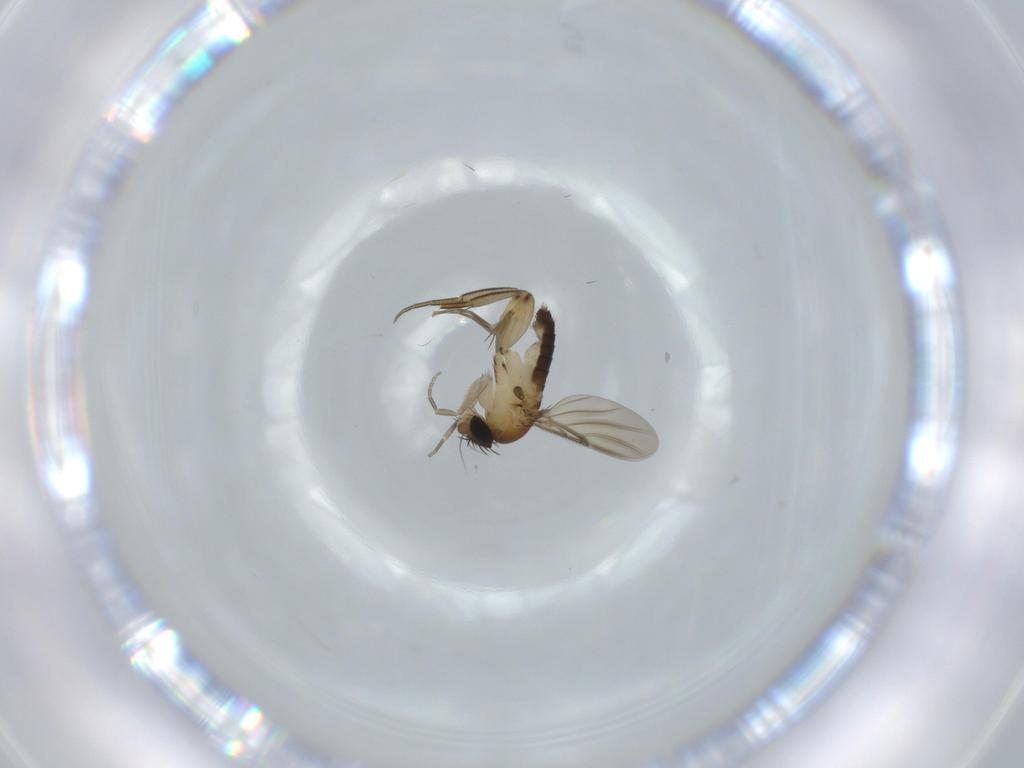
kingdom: Animalia
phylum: Arthropoda
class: Insecta
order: Diptera
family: Phoridae
